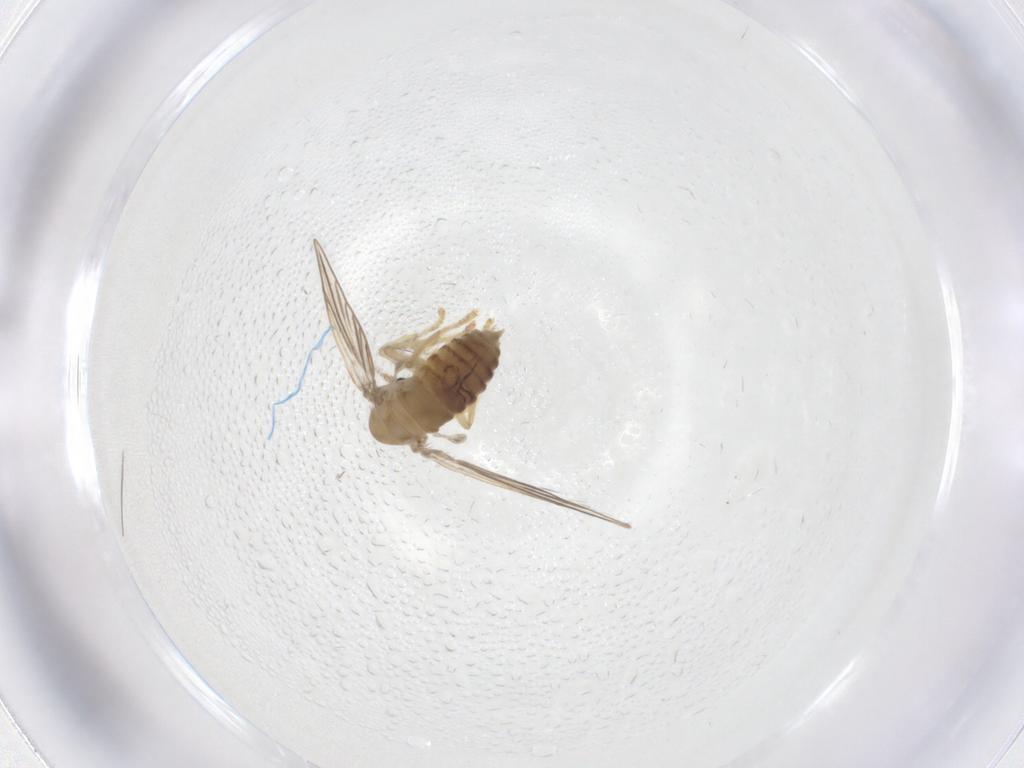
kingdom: Animalia
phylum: Arthropoda
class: Insecta
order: Diptera
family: Psychodidae
